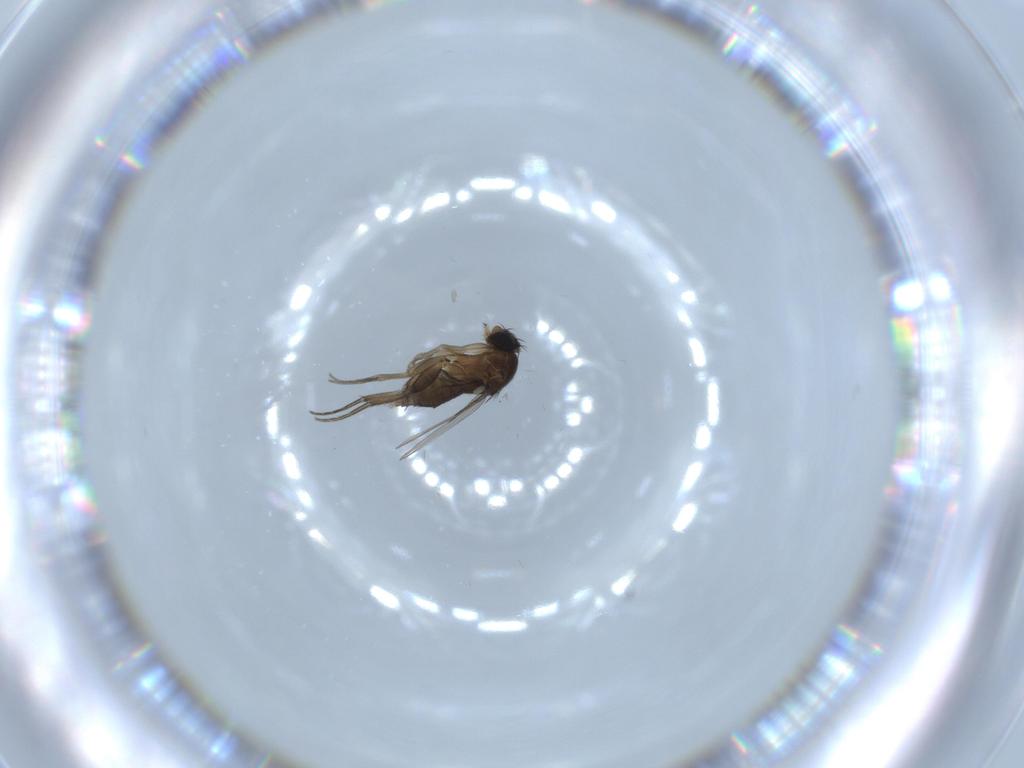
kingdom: Animalia
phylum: Arthropoda
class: Insecta
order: Diptera
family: Phoridae
